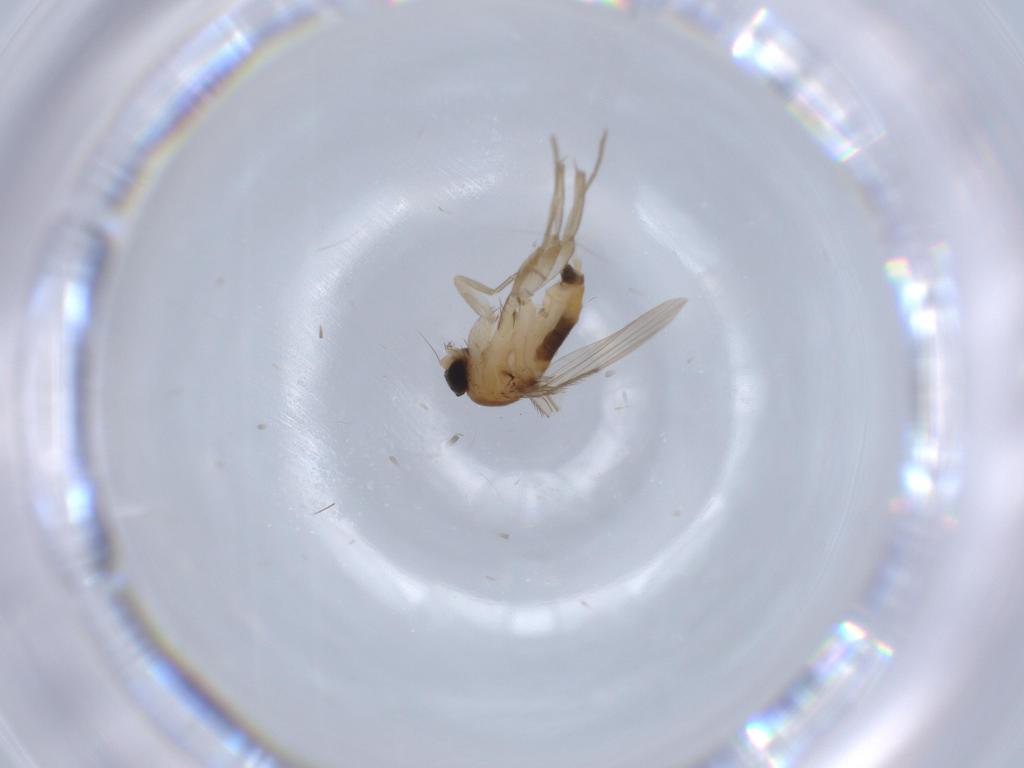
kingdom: Animalia
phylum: Arthropoda
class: Insecta
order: Diptera
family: Phoridae
